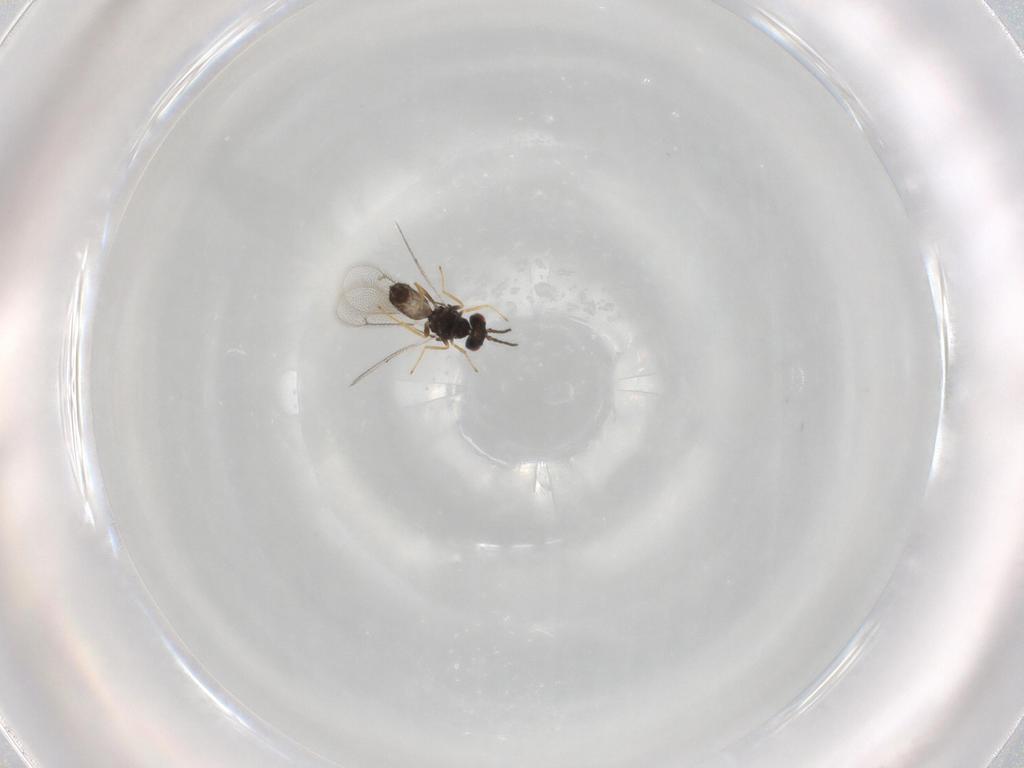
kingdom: Animalia
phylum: Arthropoda
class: Insecta
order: Hymenoptera
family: Eulophidae
